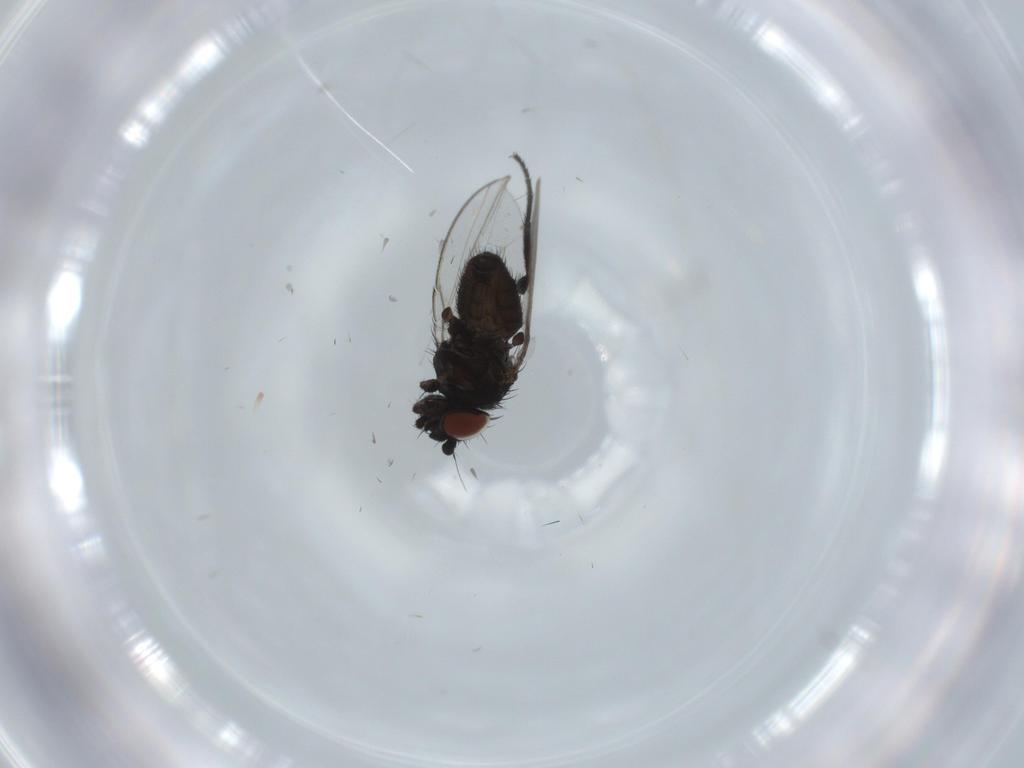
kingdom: Animalia
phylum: Arthropoda
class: Insecta
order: Diptera
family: Milichiidae
